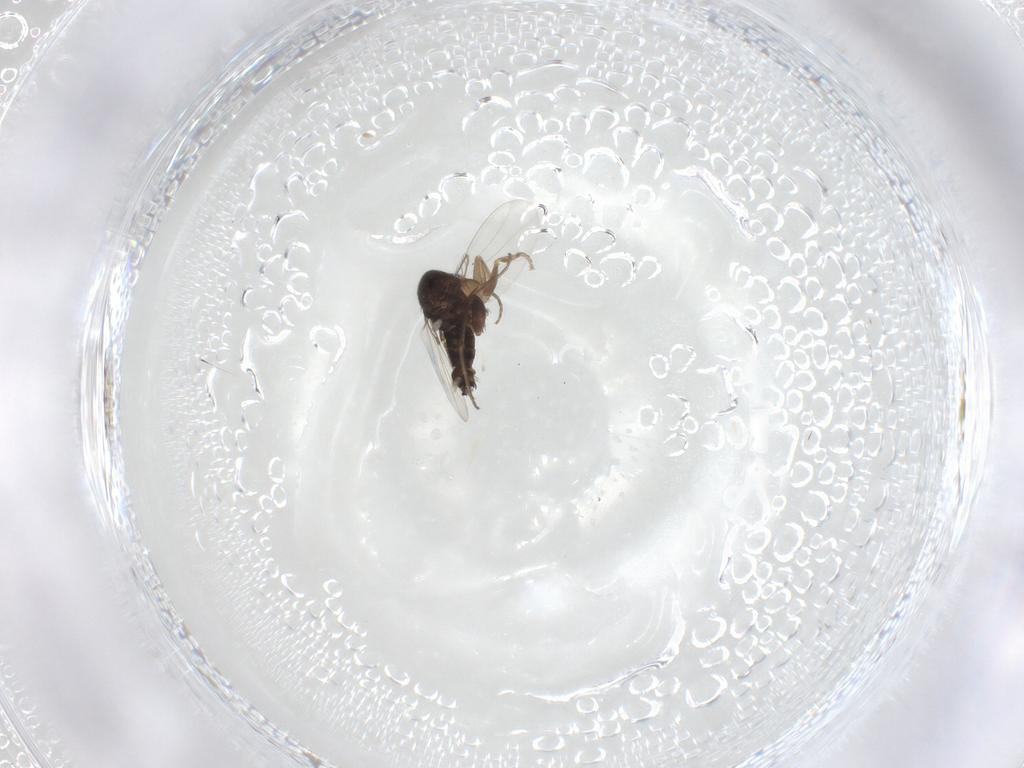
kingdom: Animalia
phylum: Arthropoda
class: Insecta
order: Diptera
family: Phoridae
